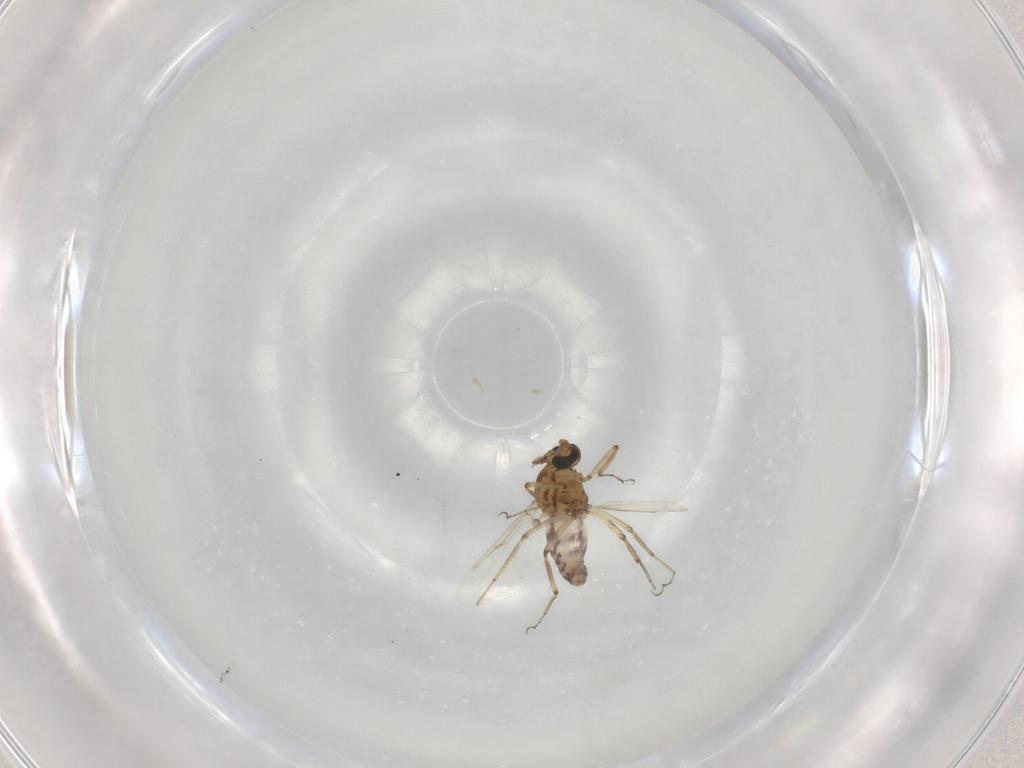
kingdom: Animalia
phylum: Arthropoda
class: Insecta
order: Diptera
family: Ceratopogonidae
